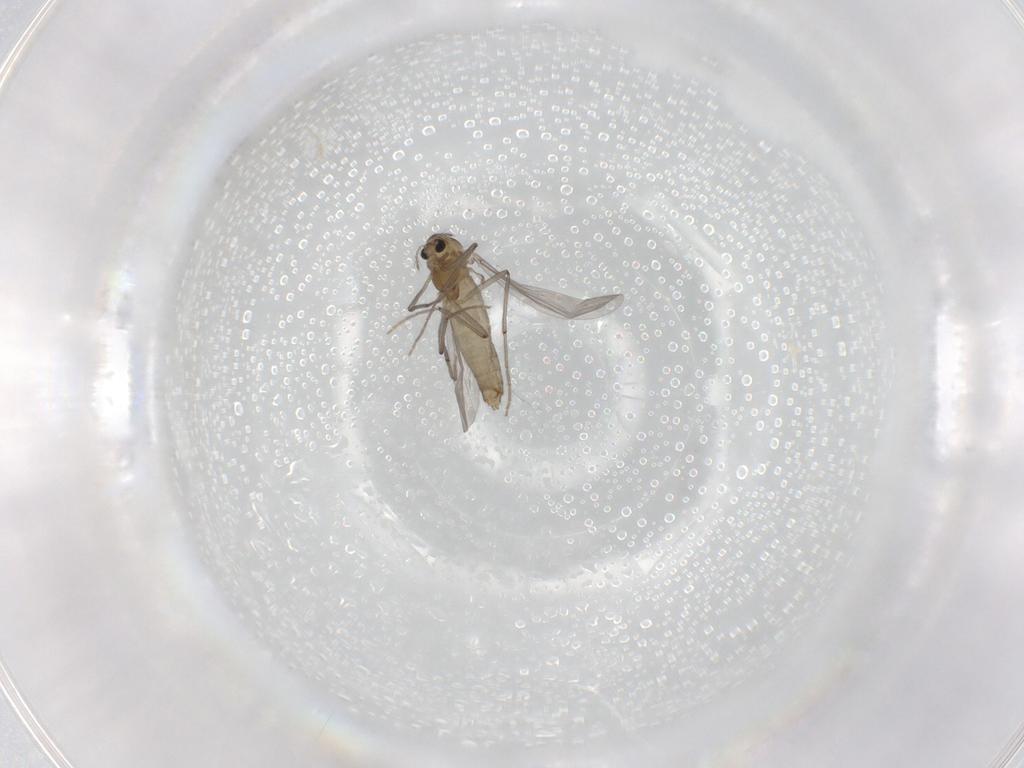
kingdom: Animalia
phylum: Arthropoda
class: Insecta
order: Diptera
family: Chironomidae
